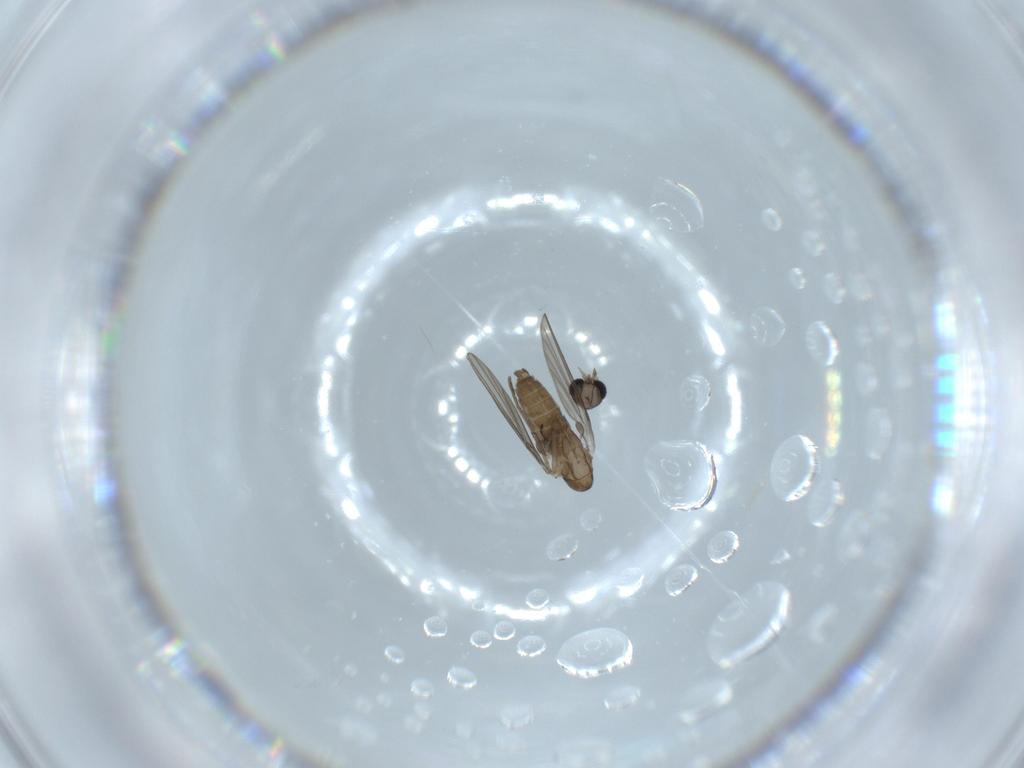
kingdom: Animalia
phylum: Arthropoda
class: Insecta
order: Diptera
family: Psychodidae
